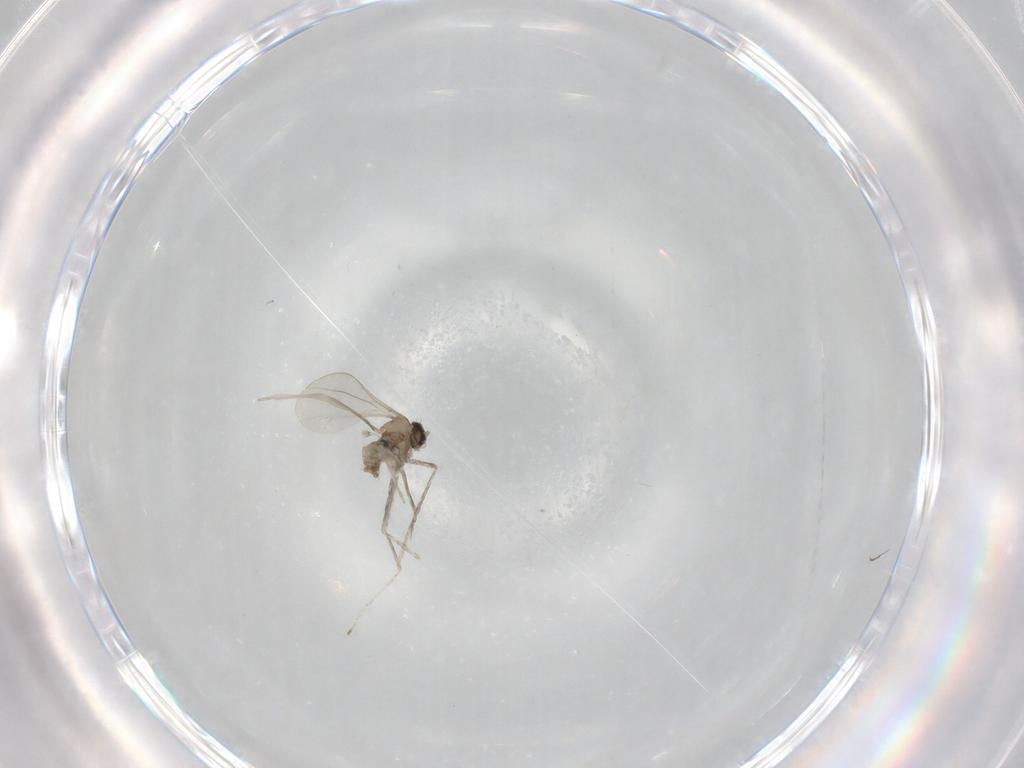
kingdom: Animalia
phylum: Arthropoda
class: Insecta
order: Diptera
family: Cecidomyiidae
